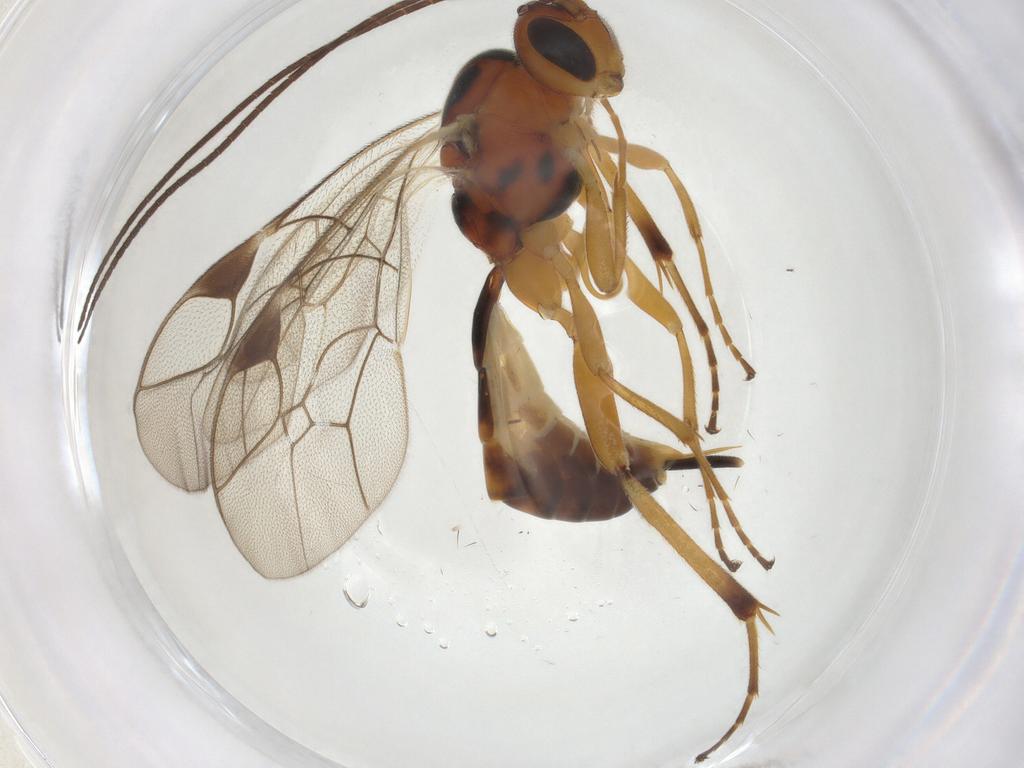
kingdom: Animalia
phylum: Arthropoda
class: Insecta
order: Hymenoptera
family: Ichneumonidae
